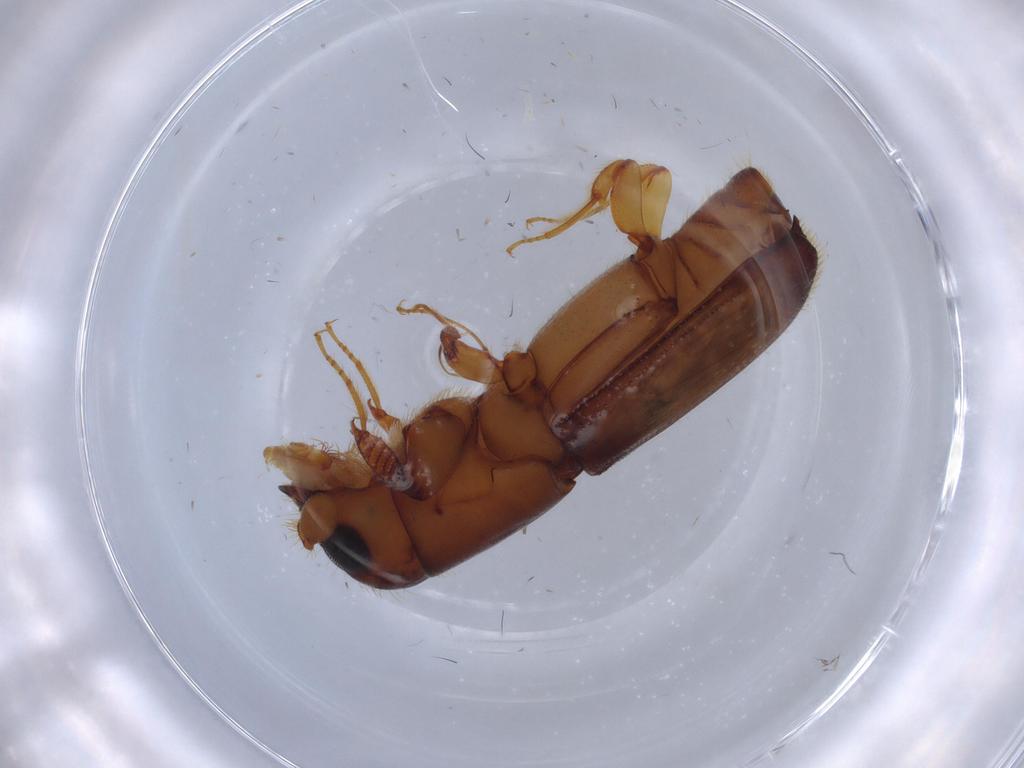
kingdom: Animalia
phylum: Arthropoda
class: Insecta
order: Coleoptera
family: Curculionidae
